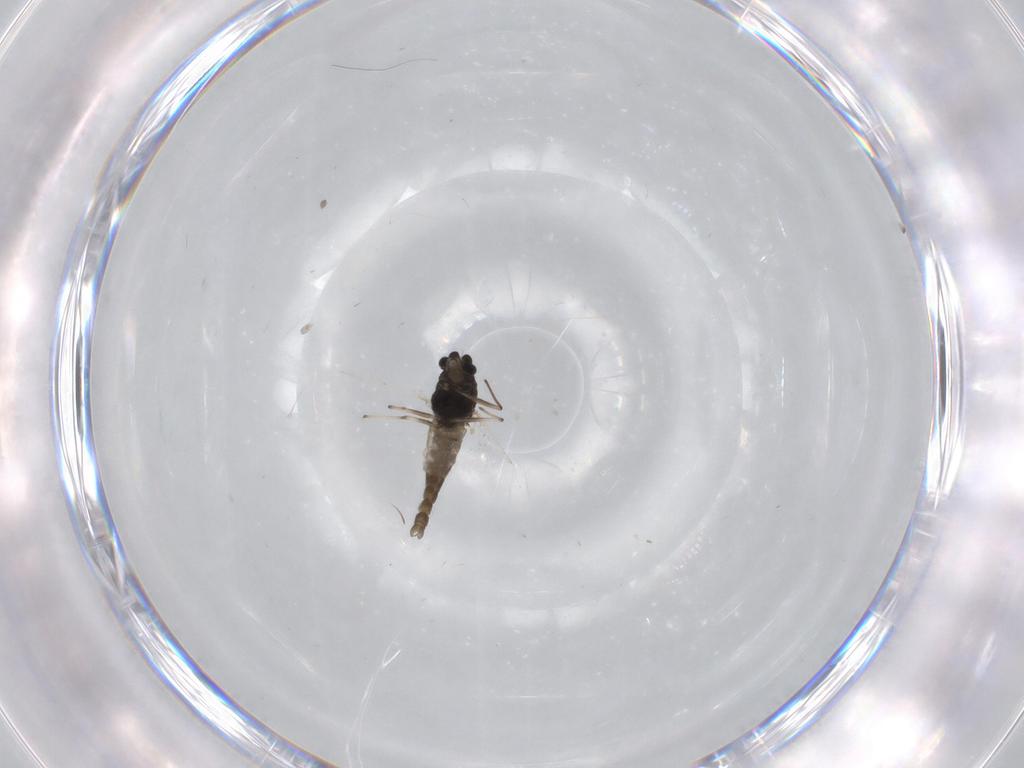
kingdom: Animalia
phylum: Arthropoda
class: Insecta
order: Diptera
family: Chironomidae
